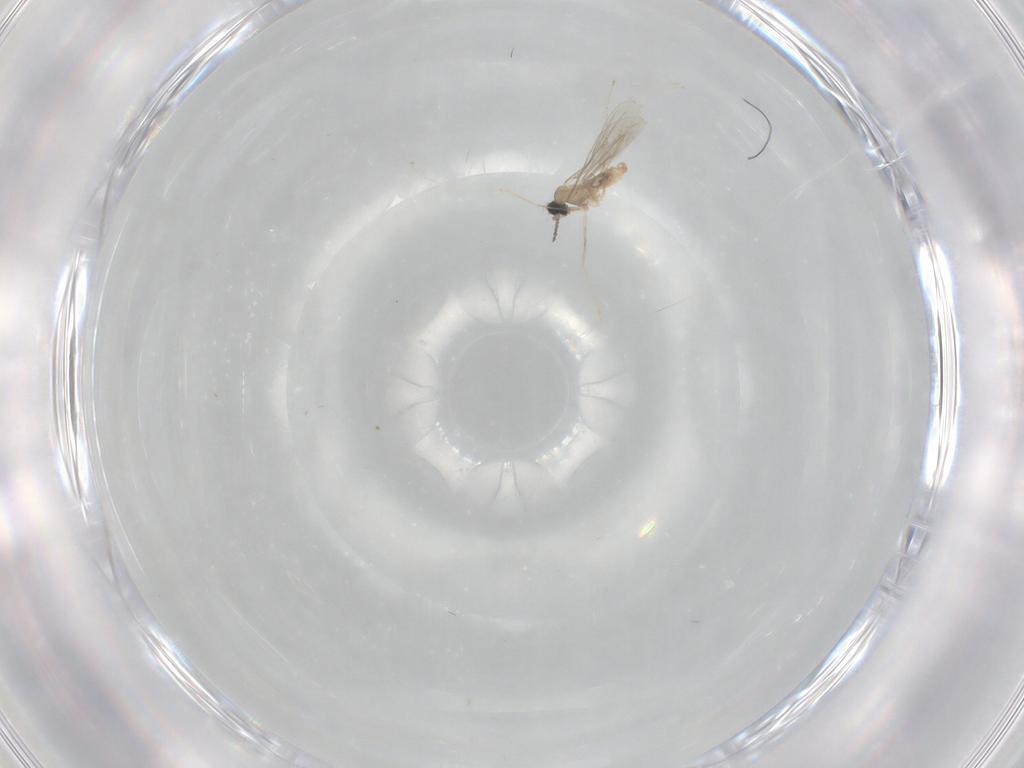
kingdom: Animalia
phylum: Arthropoda
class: Insecta
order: Diptera
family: Cecidomyiidae
